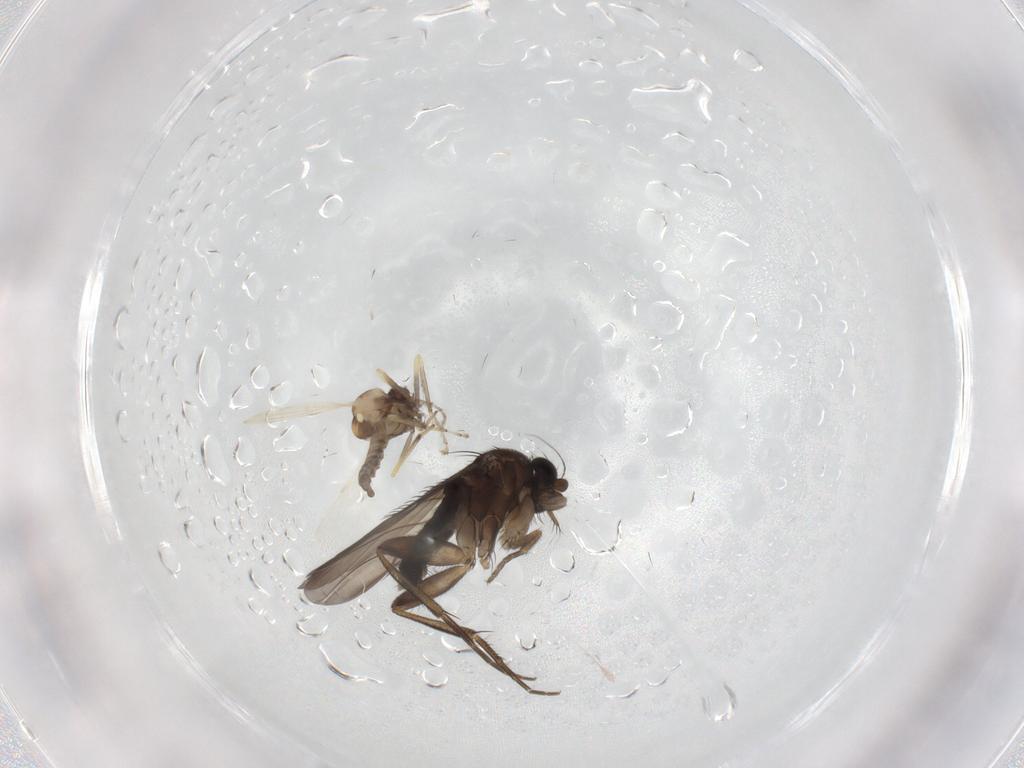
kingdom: Animalia
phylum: Arthropoda
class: Insecta
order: Diptera
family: Phoridae
